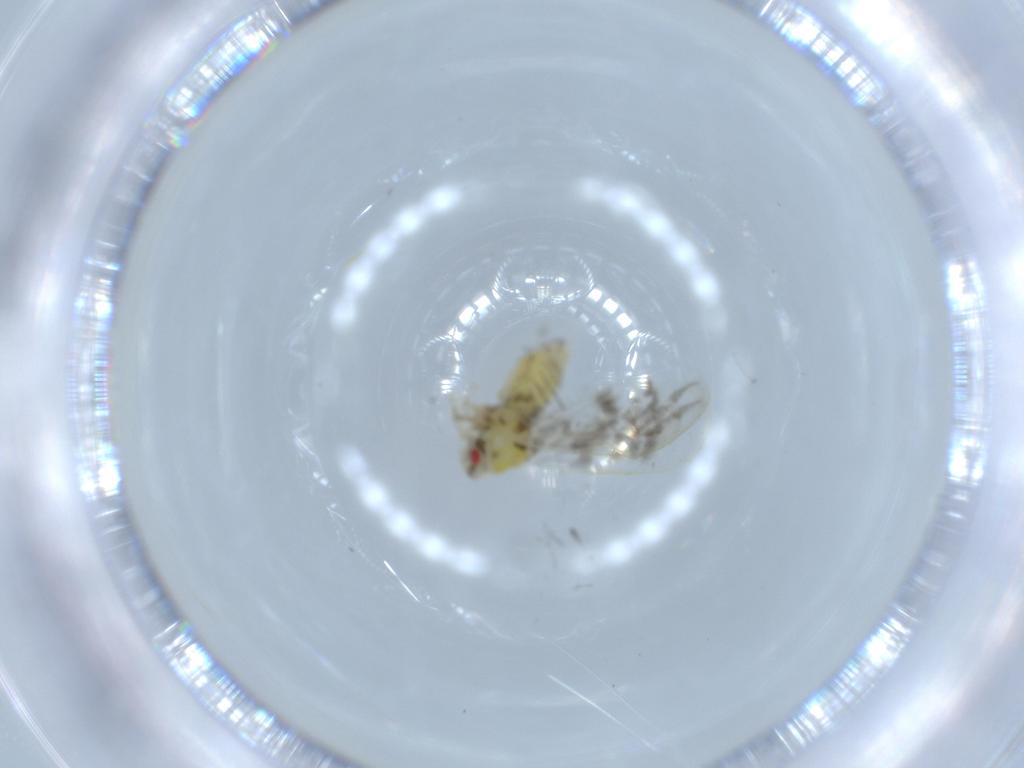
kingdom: Animalia
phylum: Arthropoda
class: Insecta
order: Hemiptera
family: Aleyrodidae
